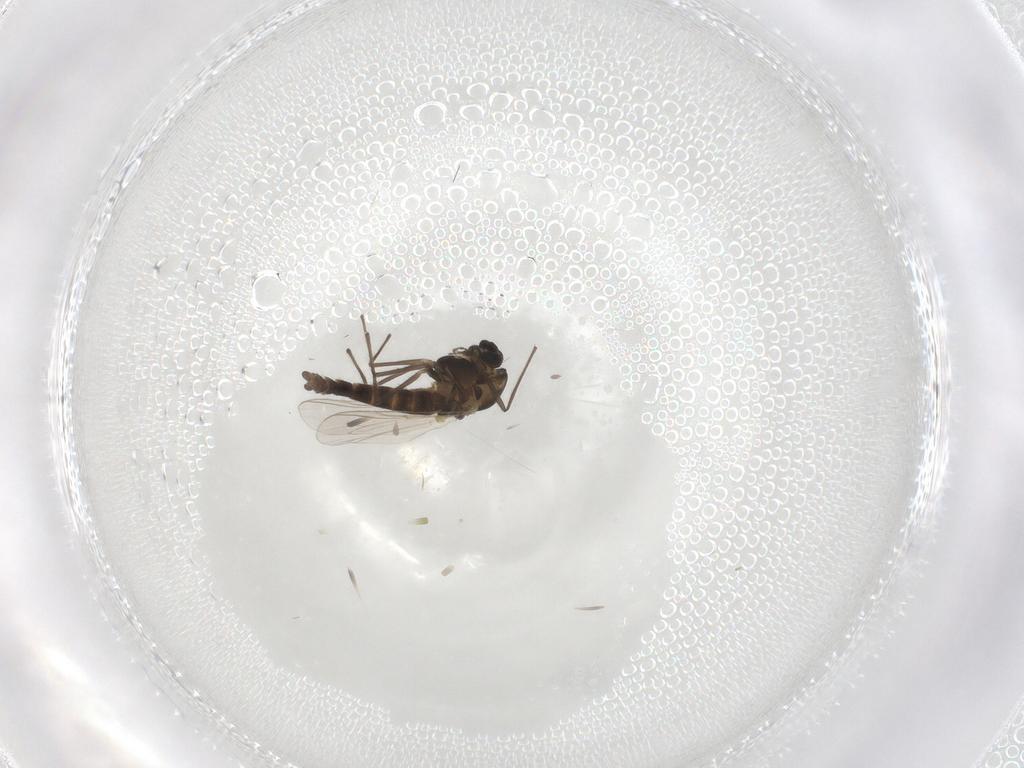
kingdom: Animalia
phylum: Arthropoda
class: Insecta
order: Diptera
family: Chironomidae
